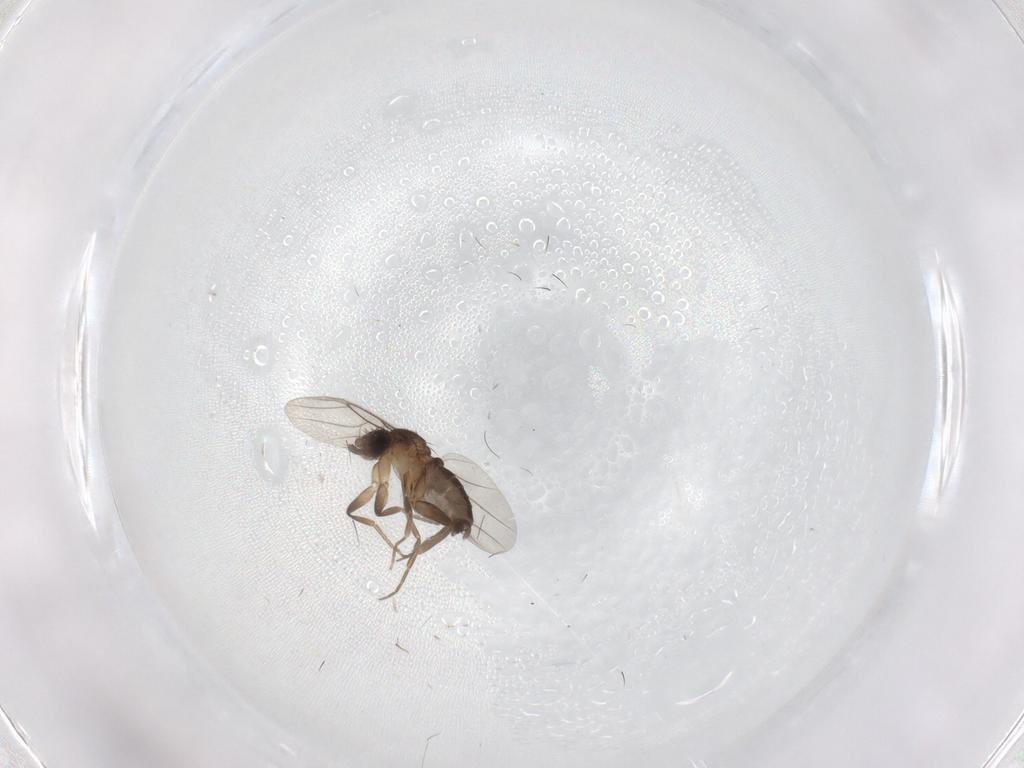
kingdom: Animalia
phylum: Arthropoda
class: Insecta
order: Diptera
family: Phoridae
